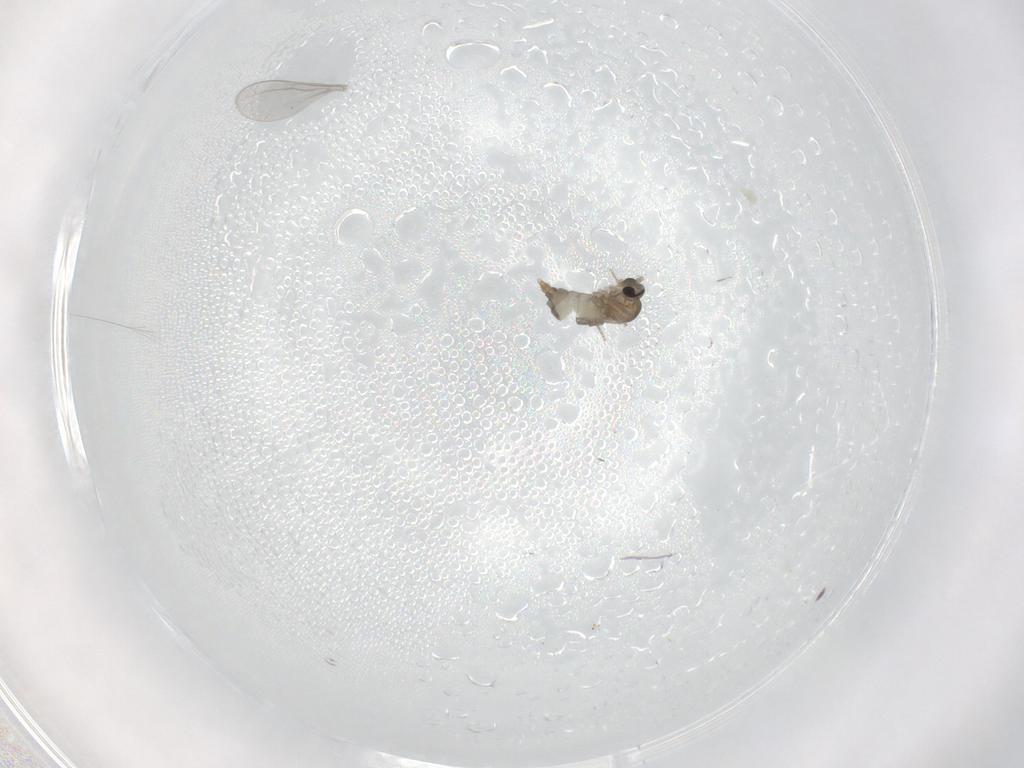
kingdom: Animalia
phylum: Arthropoda
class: Insecta
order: Diptera
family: Cecidomyiidae
